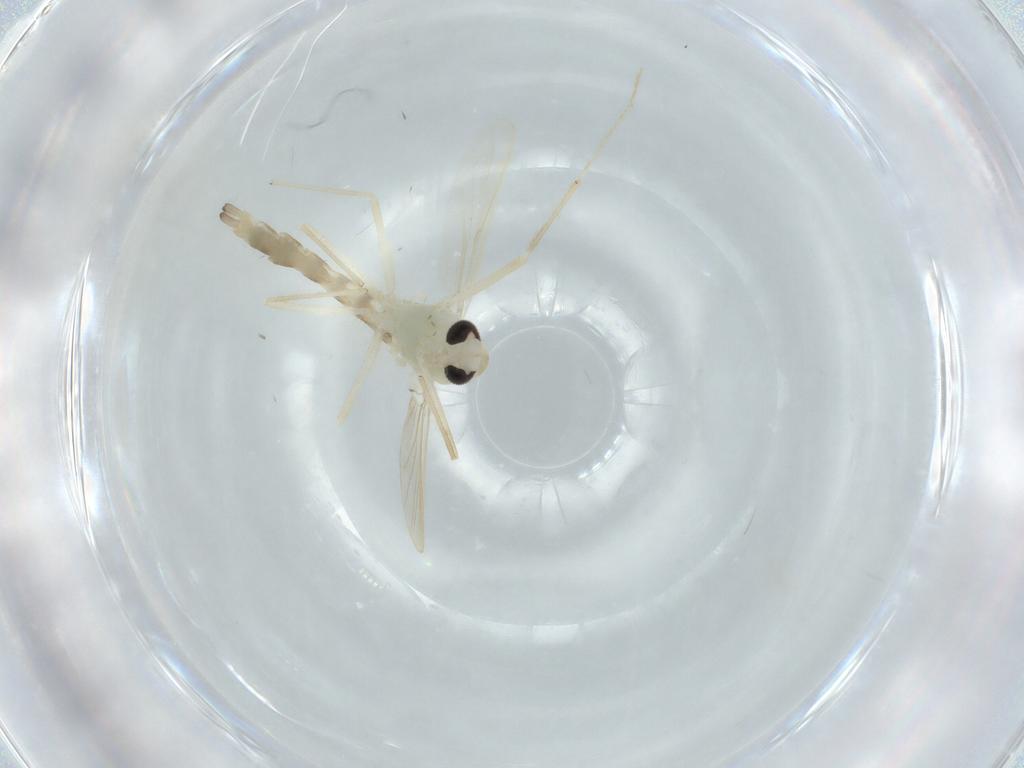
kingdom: Animalia
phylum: Arthropoda
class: Insecta
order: Diptera
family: Chironomidae
